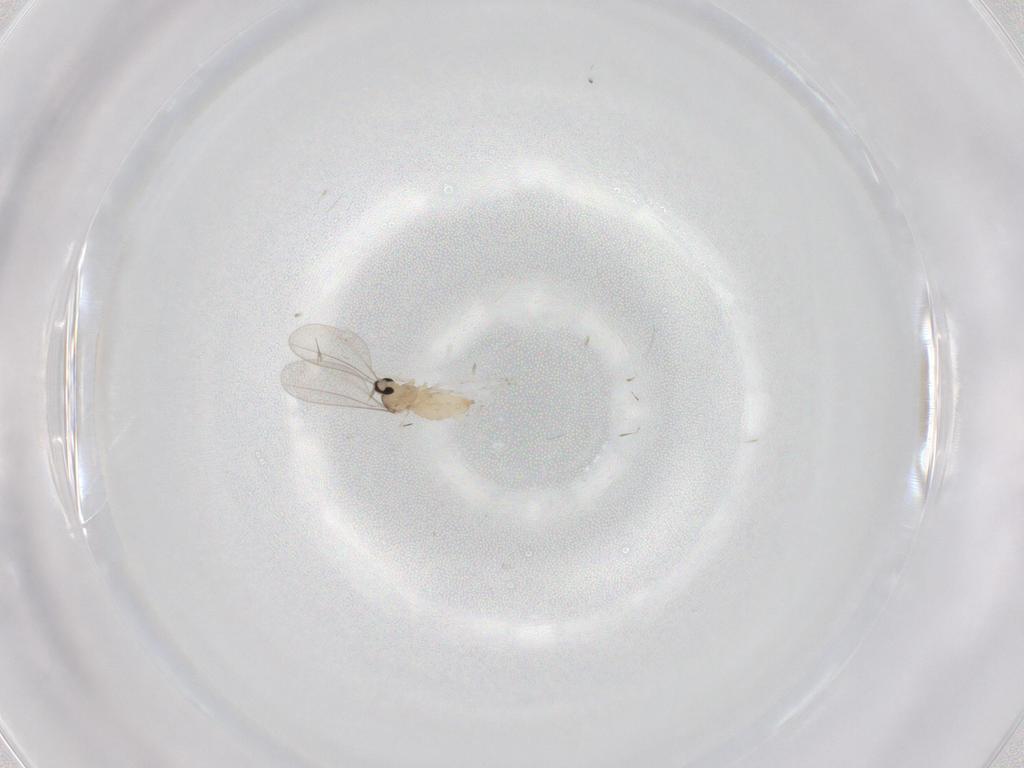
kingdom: Animalia
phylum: Arthropoda
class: Insecta
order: Diptera
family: Cecidomyiidae
